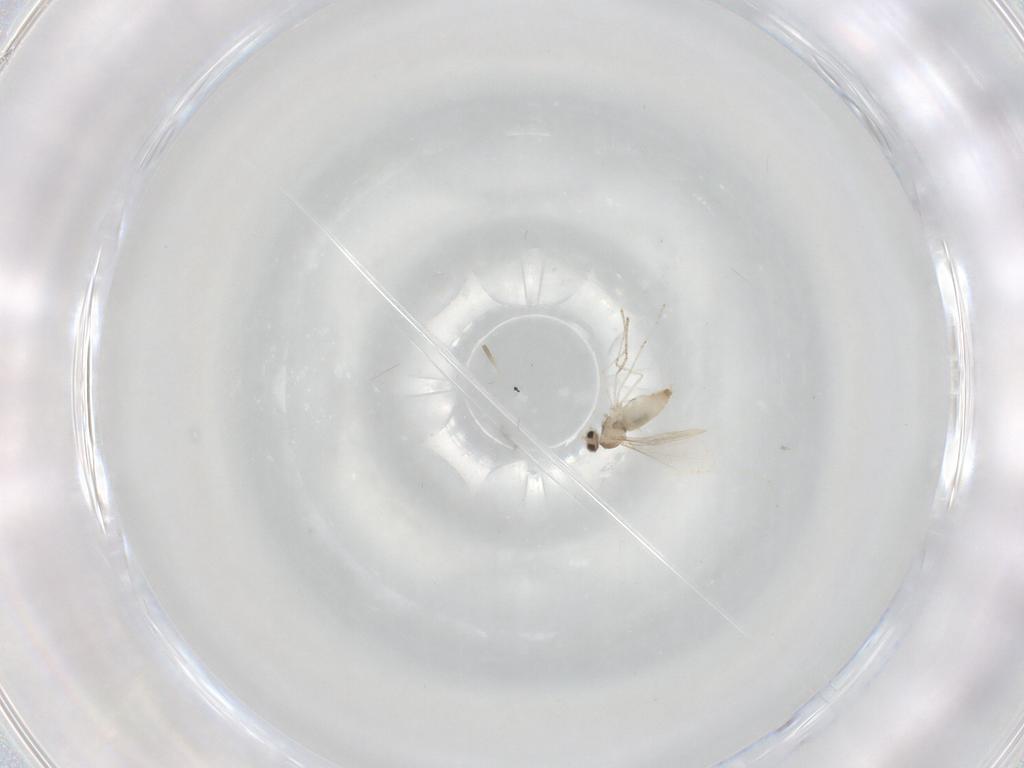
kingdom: Animalia
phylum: Arthropoda
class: Insecta
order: Diptera
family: Cecidomyiidae
